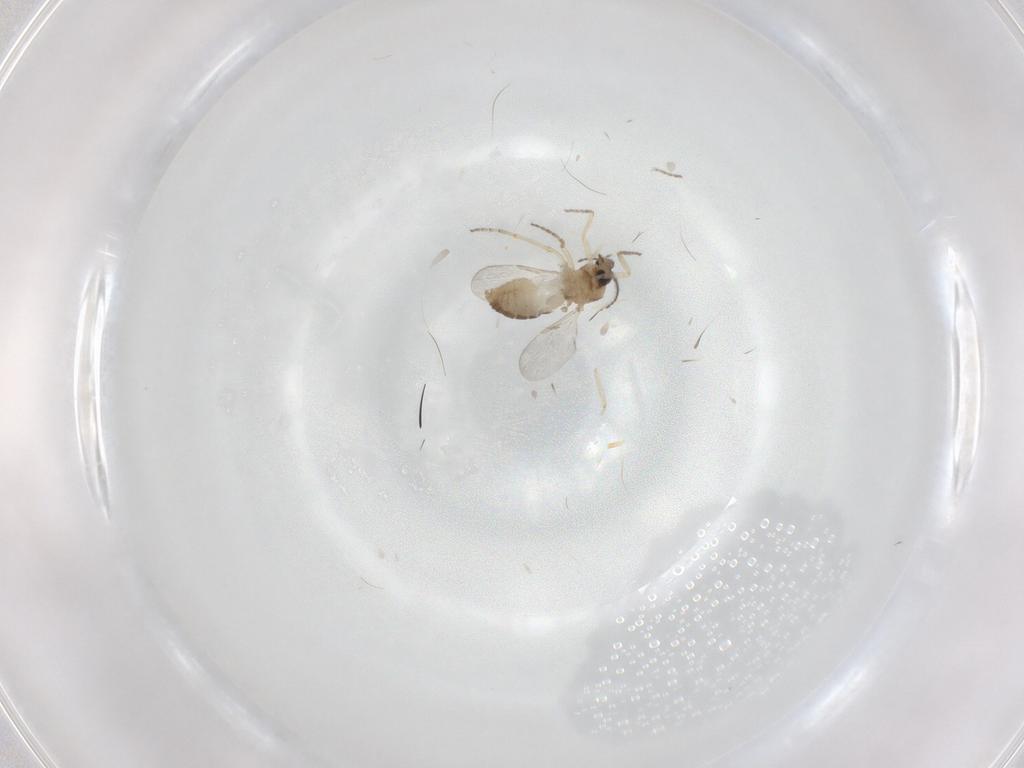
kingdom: Animalia
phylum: Arthropoda
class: Insecta
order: Diptera
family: Ceratopogonidae
